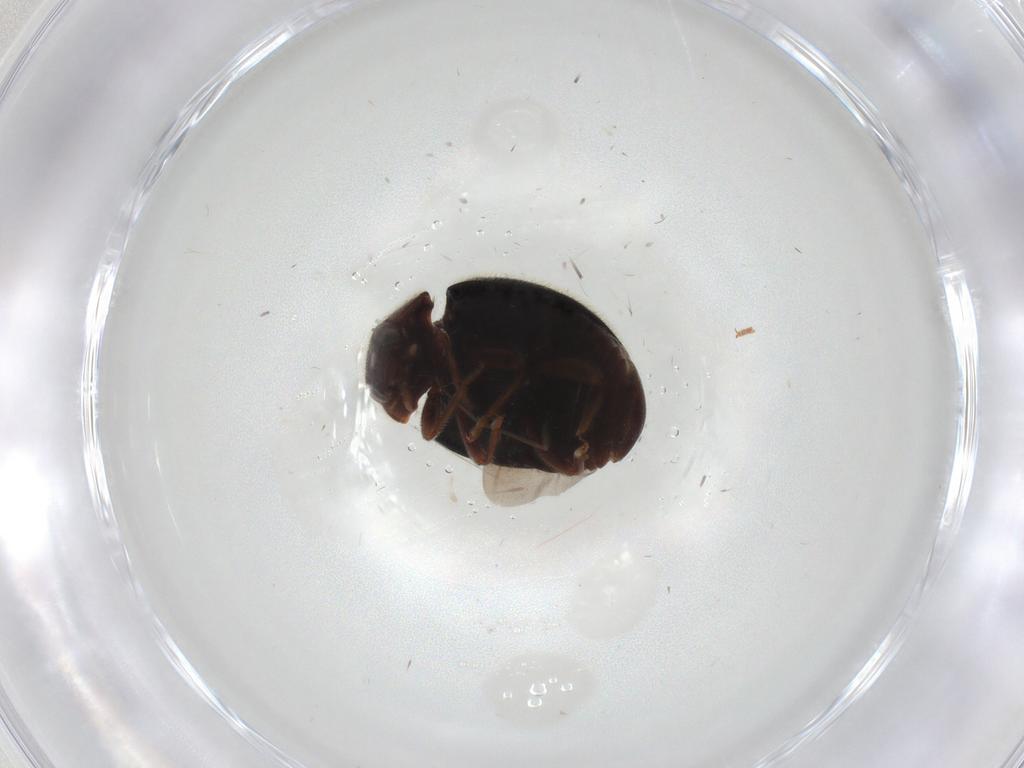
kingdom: Animalia
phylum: Arthropoda
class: Insecta
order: Coleoptera
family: Coccinellidae
